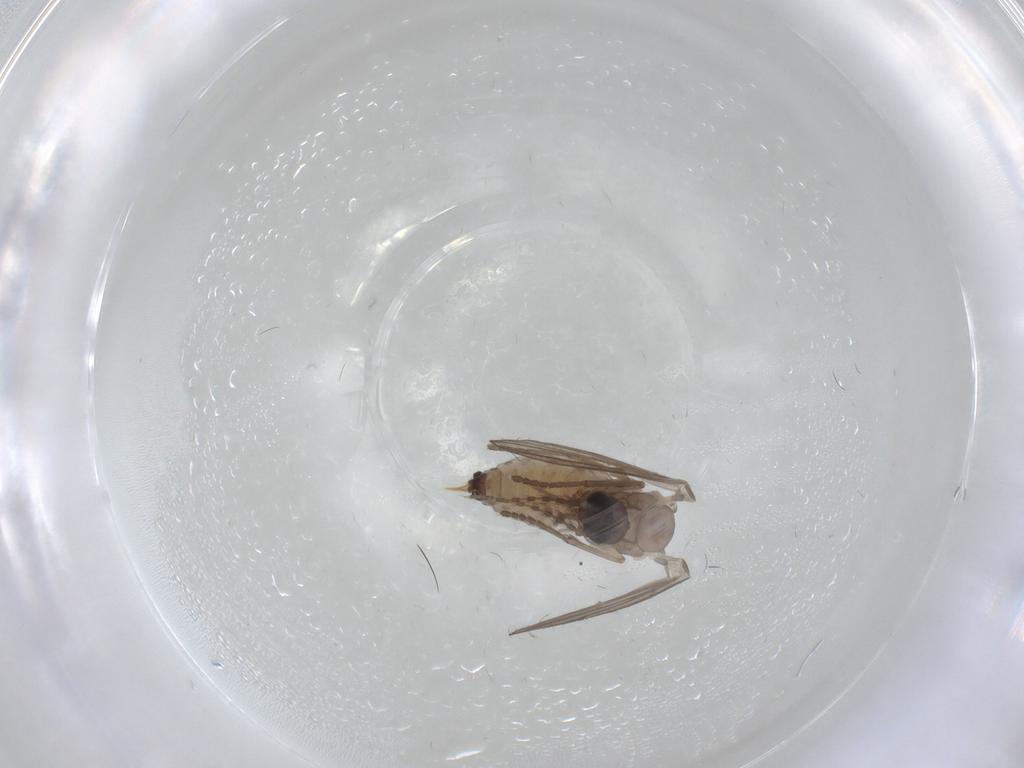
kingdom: Animalia
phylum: Arthropoda
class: Insecta
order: Diptera
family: Psychodidae
